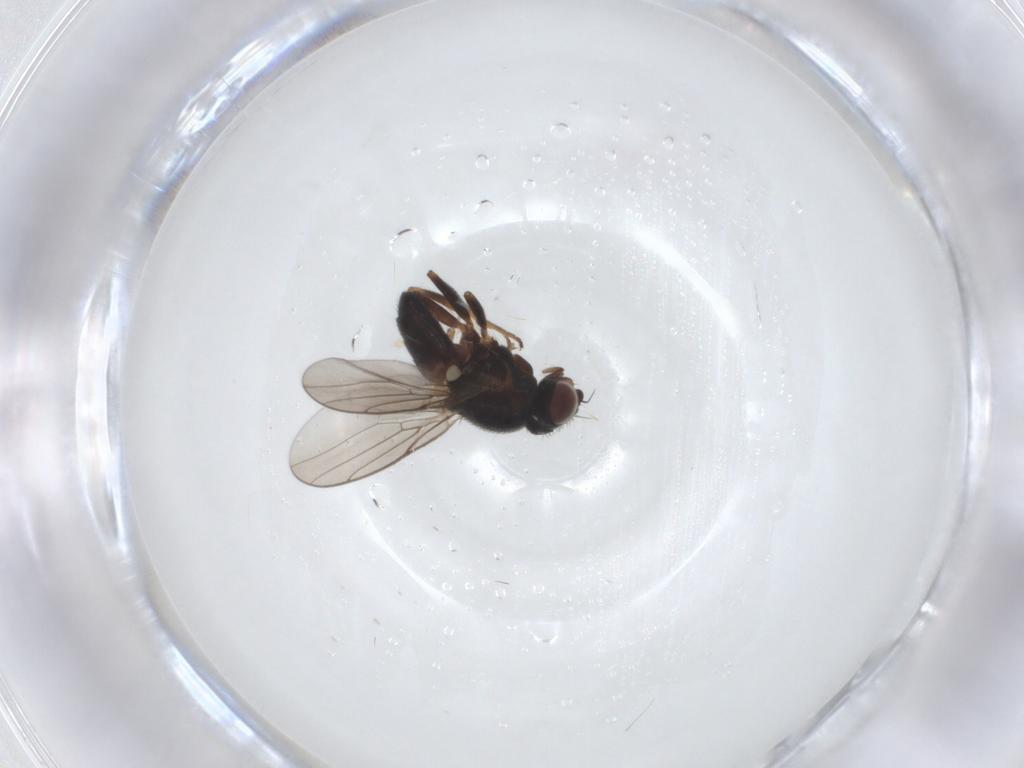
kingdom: Animalia
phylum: Arthropoda
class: Insecta
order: Diptera
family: Chloropidae
